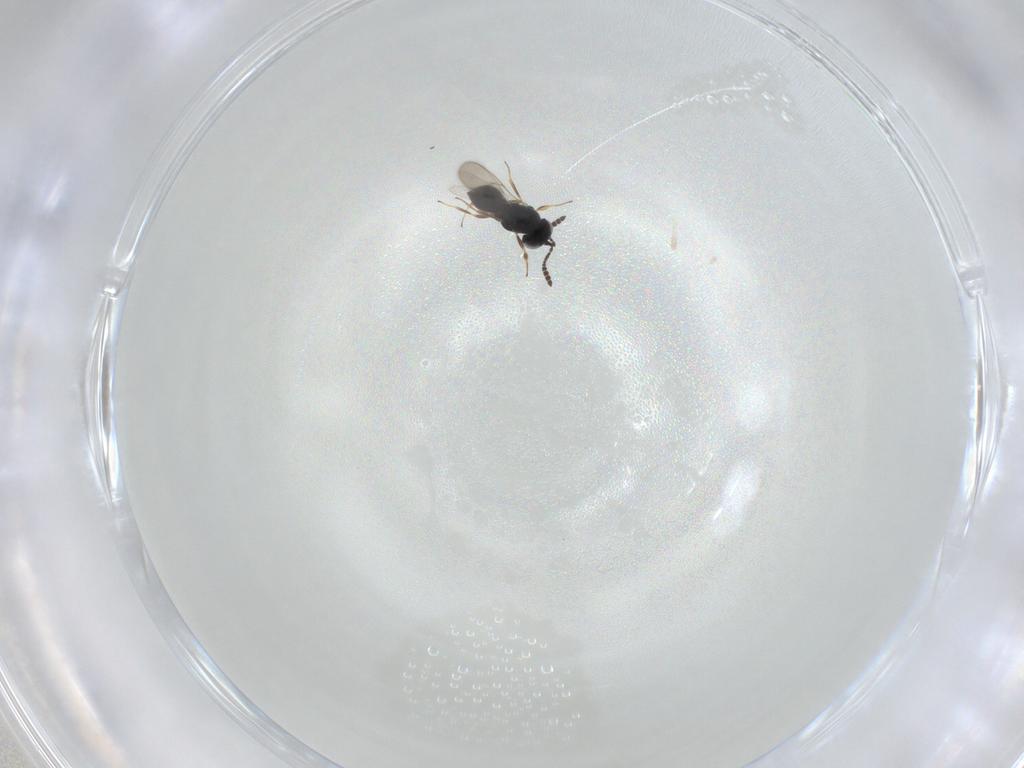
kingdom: Animalia
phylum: Arthropoda
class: Insecta
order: Hymenoptera
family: Scelionidae
